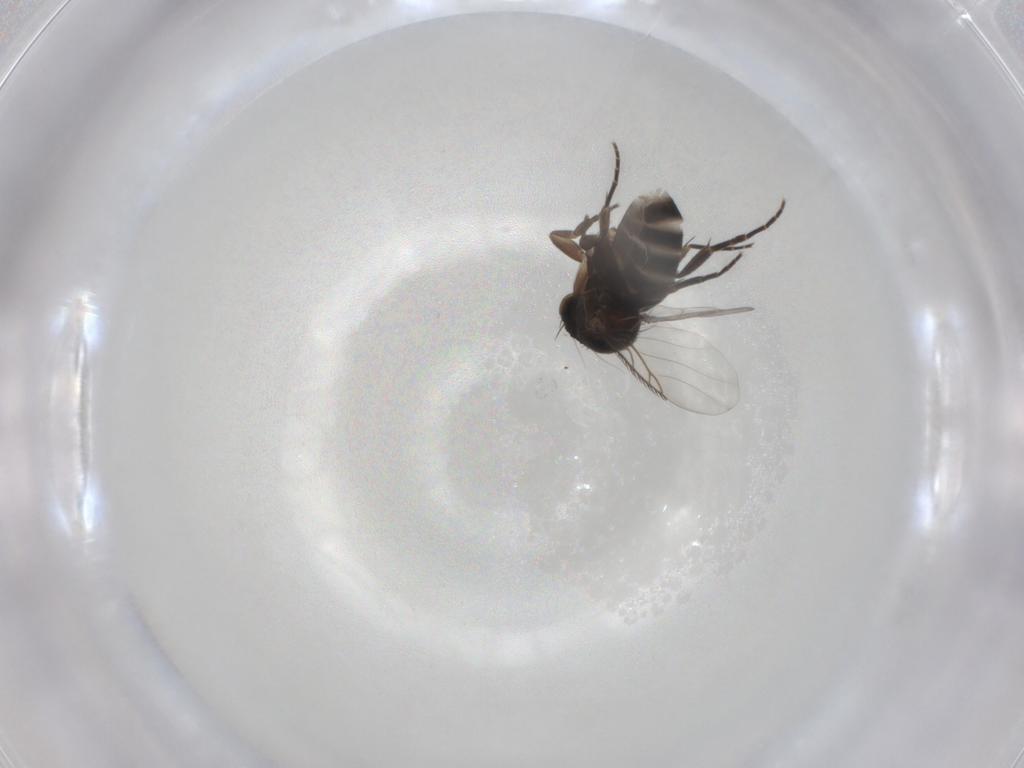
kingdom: Animalia
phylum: Arthropoda
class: Insecta
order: Diptera
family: Phoridae
